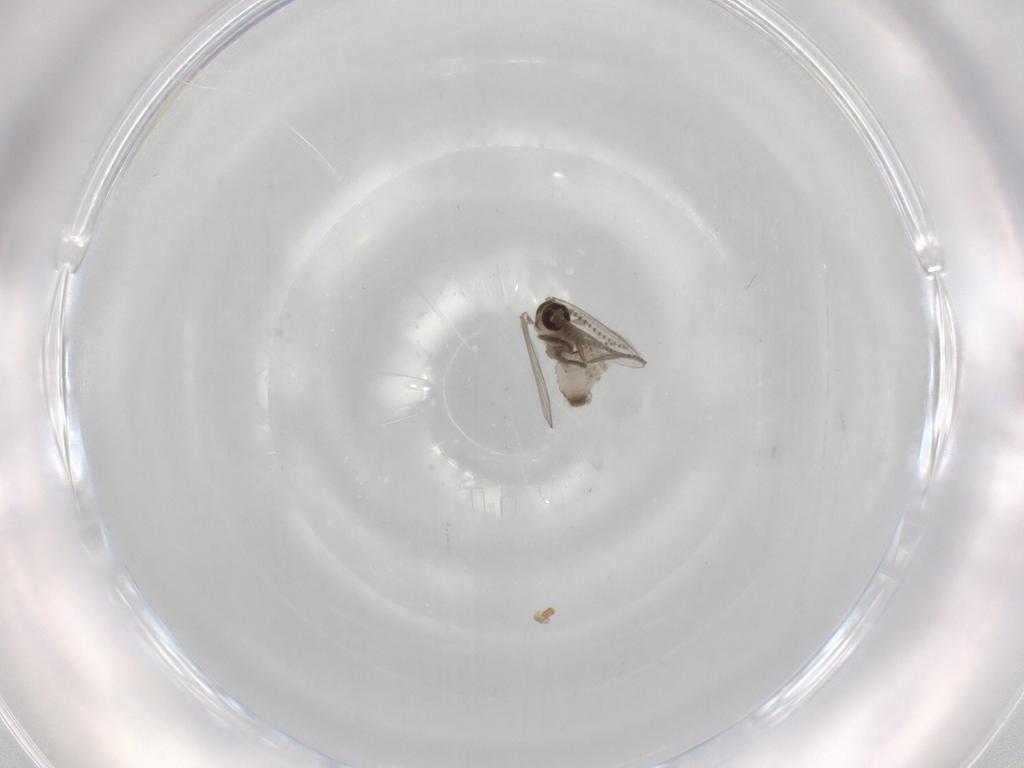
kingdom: Animalia
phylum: Arthropoda
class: Insecta
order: Diptera
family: Psychodidae
